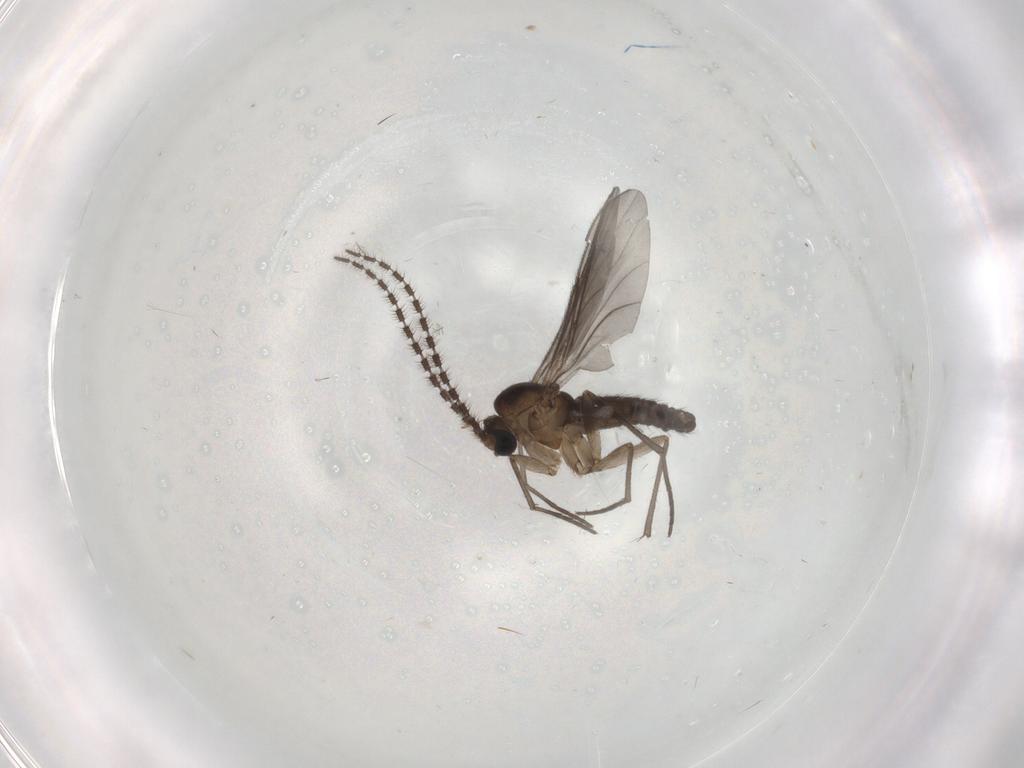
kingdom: Animalia
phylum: Arthropoda
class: Insecta
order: Diptera
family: Sciaridae
